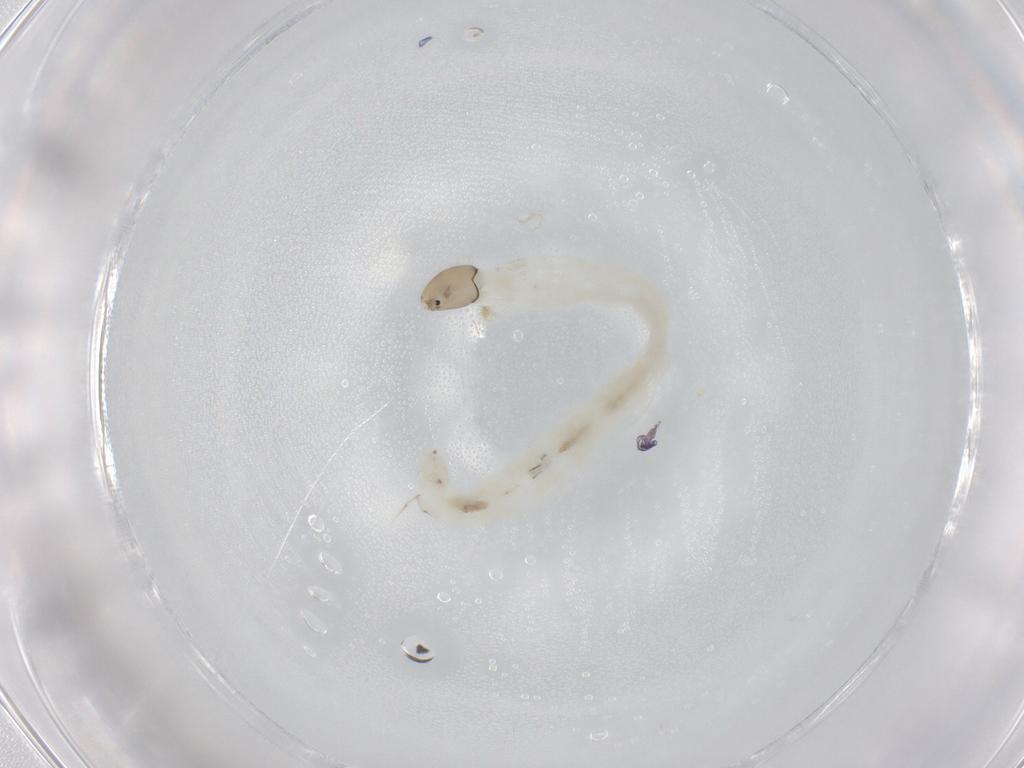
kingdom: Animalia
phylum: Arthropoda
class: Insecta
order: Diptera
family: Chironomidae
